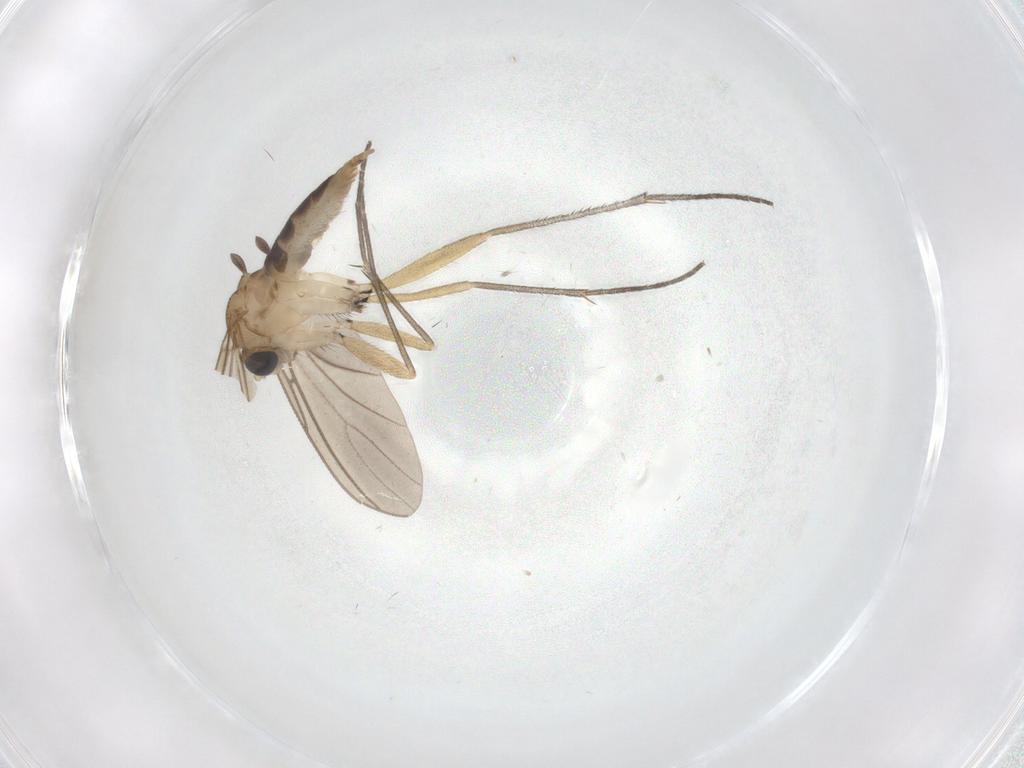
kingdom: Animalia
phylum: Arthropoda
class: Insecta
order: Diptera
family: Sciaridae
